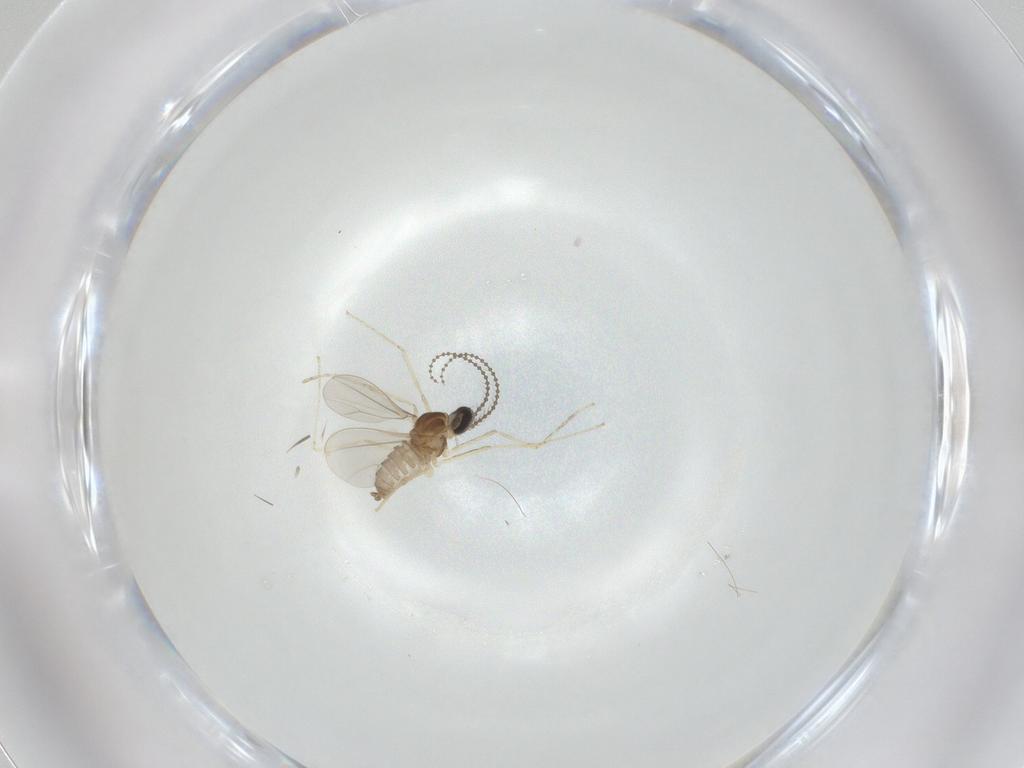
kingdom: Animalia
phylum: Arthropoda
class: Insecta
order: Diptera
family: Cecidomyiidae
